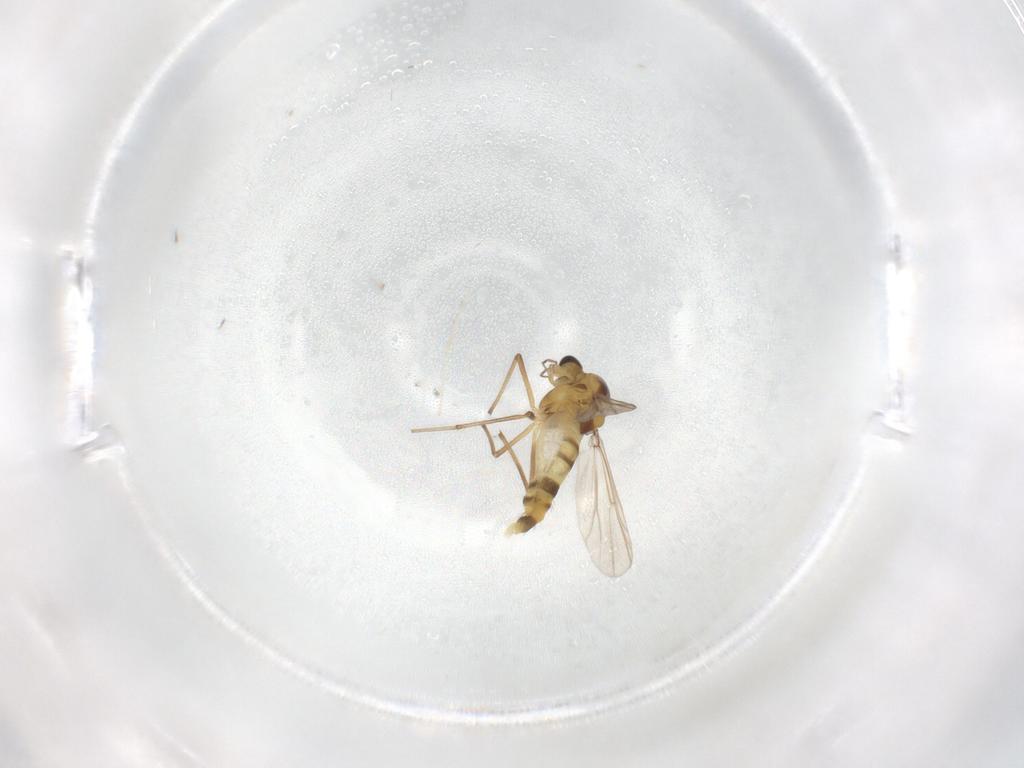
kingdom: Animalia
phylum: Arthropoda
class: Insecta
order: Diptera
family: Chironomidae
